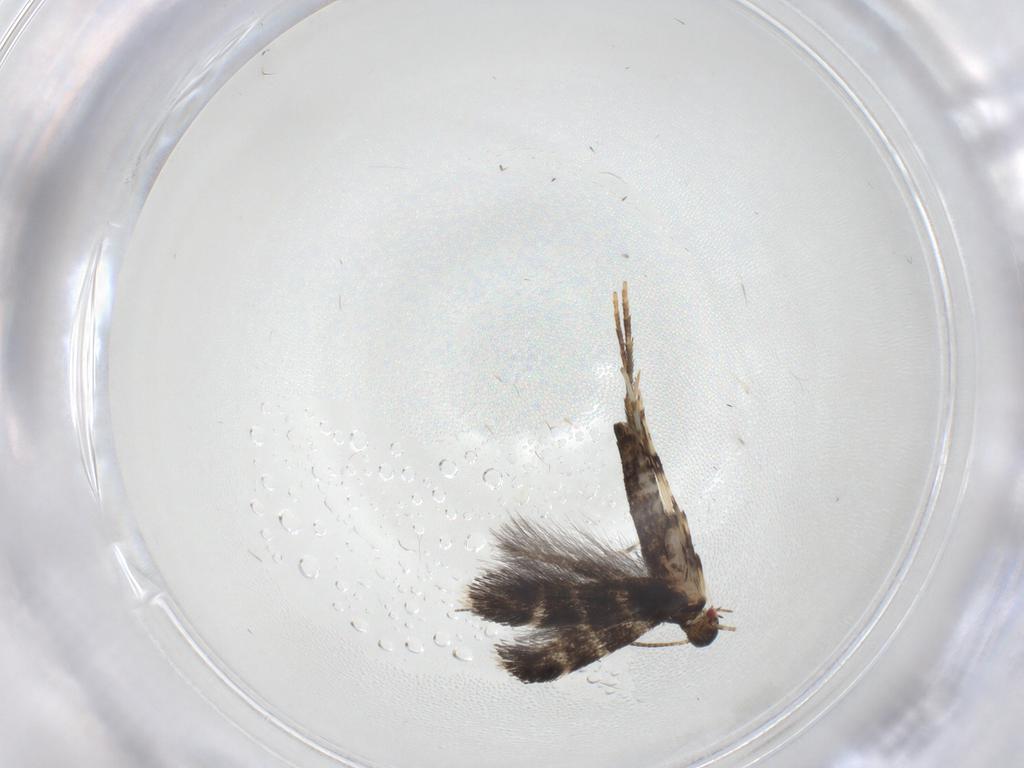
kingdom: Animalia
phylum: Arthropoda
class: Insecta
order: Lepidoptera
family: Gracillariidae
